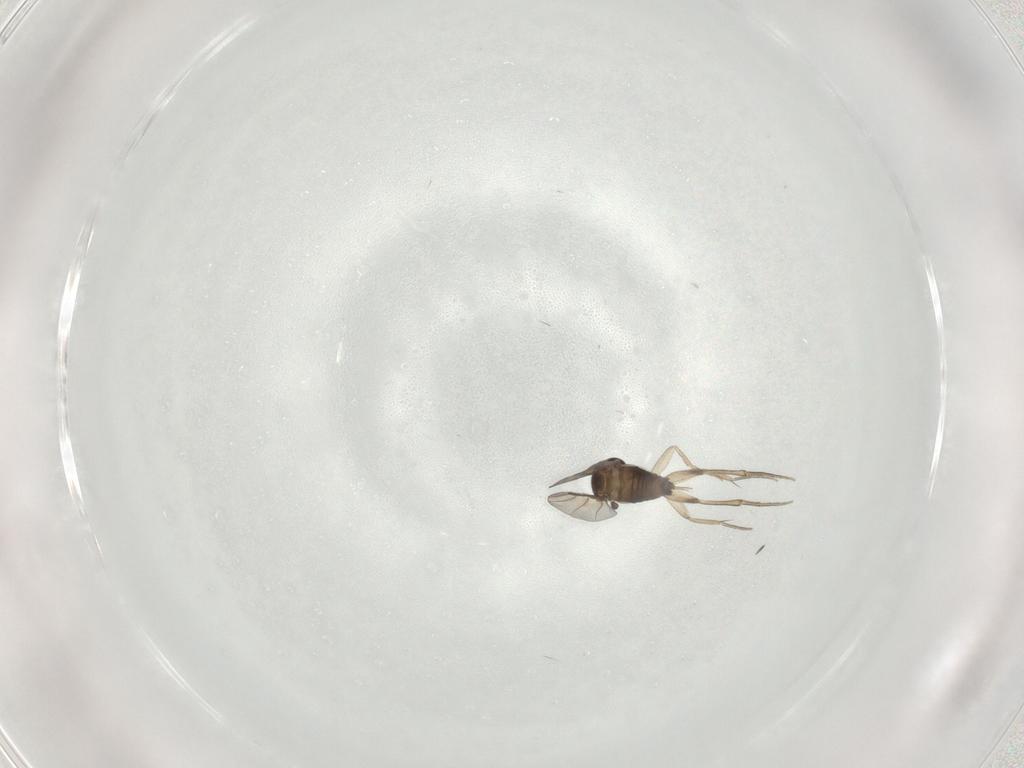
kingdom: Animalia
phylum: Arthropoda
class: Insecta
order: Diptera
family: Phoridae
